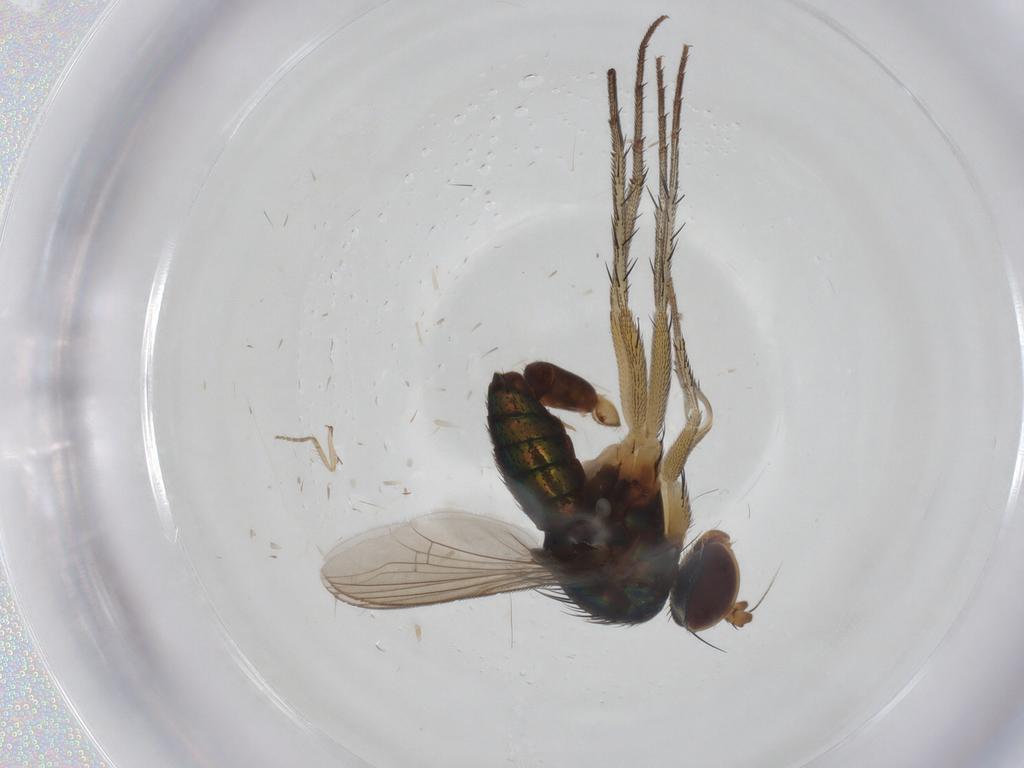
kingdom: Animalia
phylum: Arthropoda
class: Insecta
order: Diptera
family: Dolichopodidae
